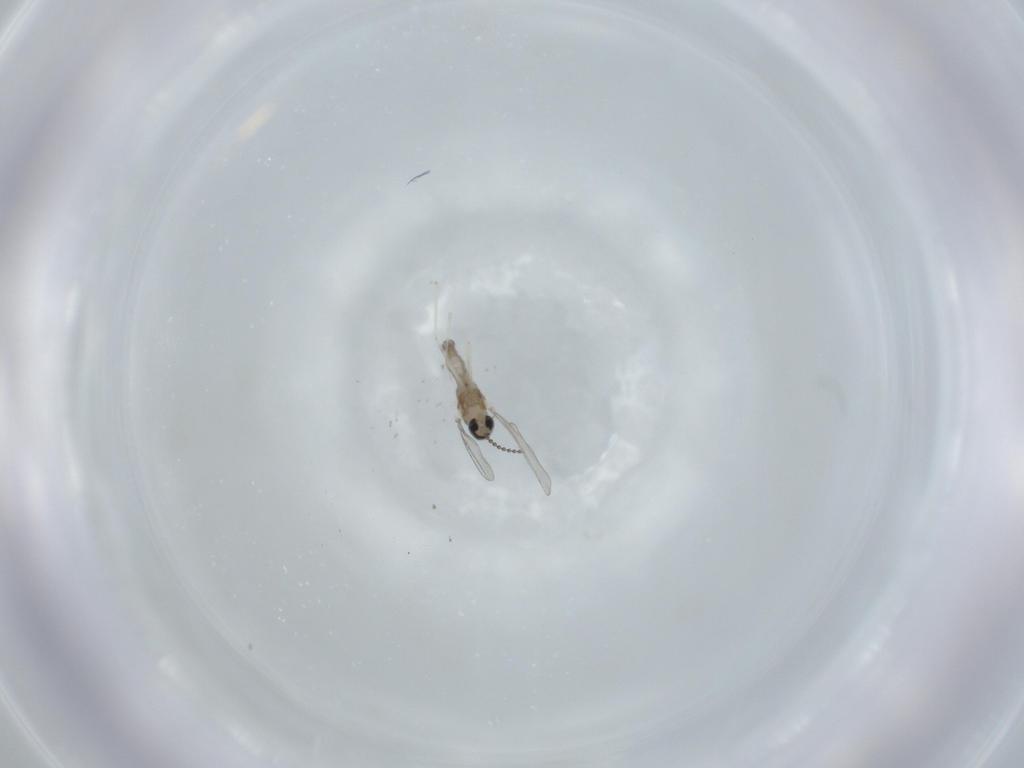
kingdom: Animalia
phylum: Arthropoda
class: Insecta
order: Diptera
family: Cecidomyiidae
